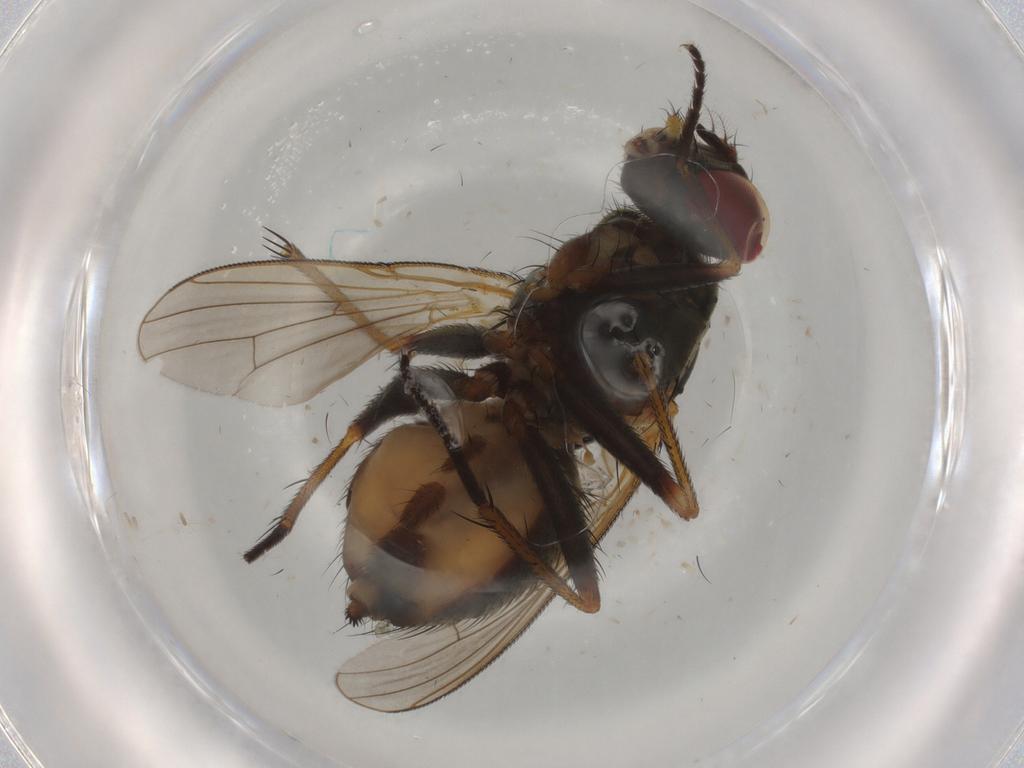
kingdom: Animalia
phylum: Arthropoda
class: Insecta
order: Diptera
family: Muscidae
